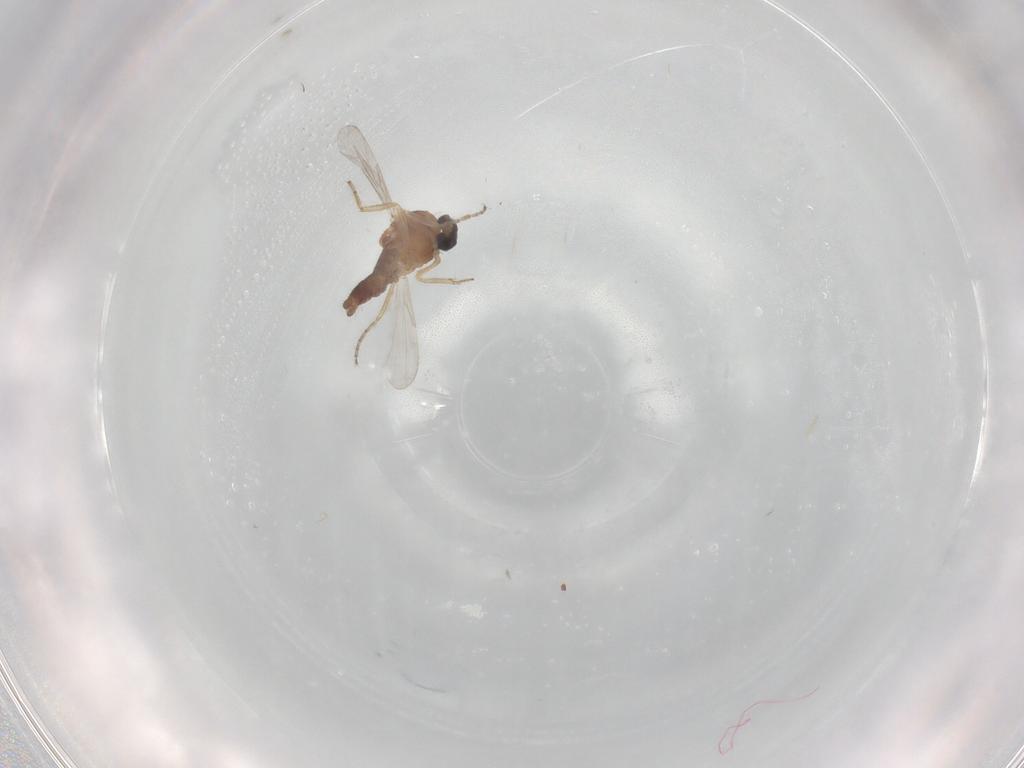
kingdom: Animalia
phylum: Arthropoda
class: Insecta
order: Diptera
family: Ceratopogonidae
